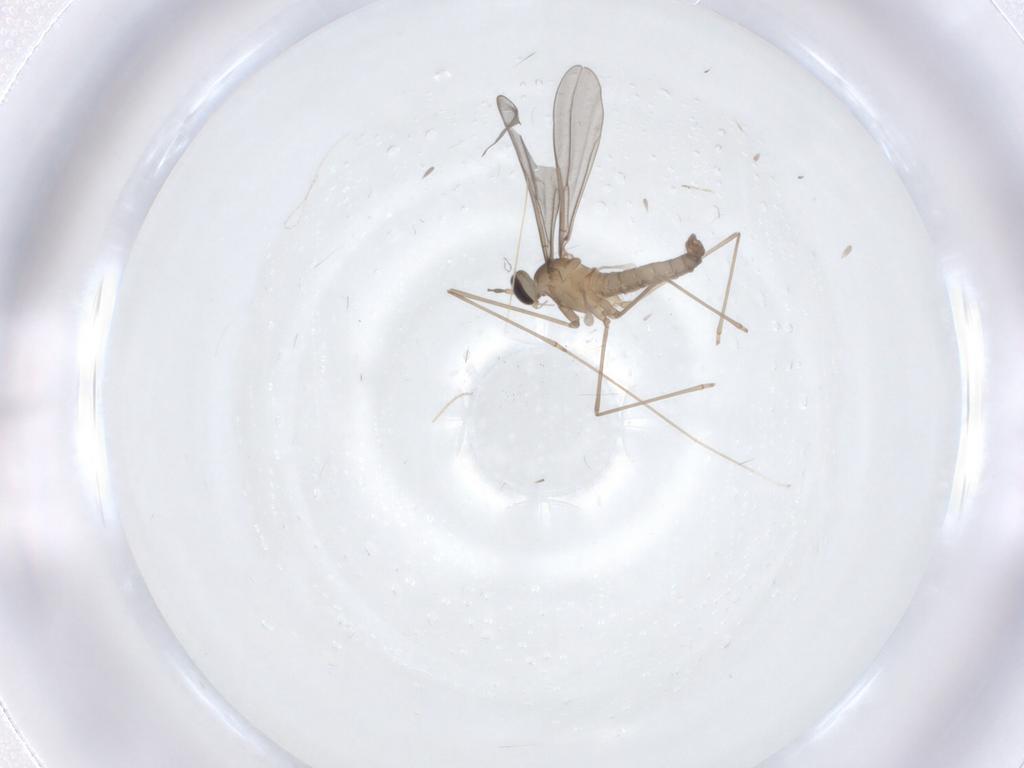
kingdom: Animalia
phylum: Arthropoda
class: Insecta
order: Diptera
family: Cecidomyiidae
